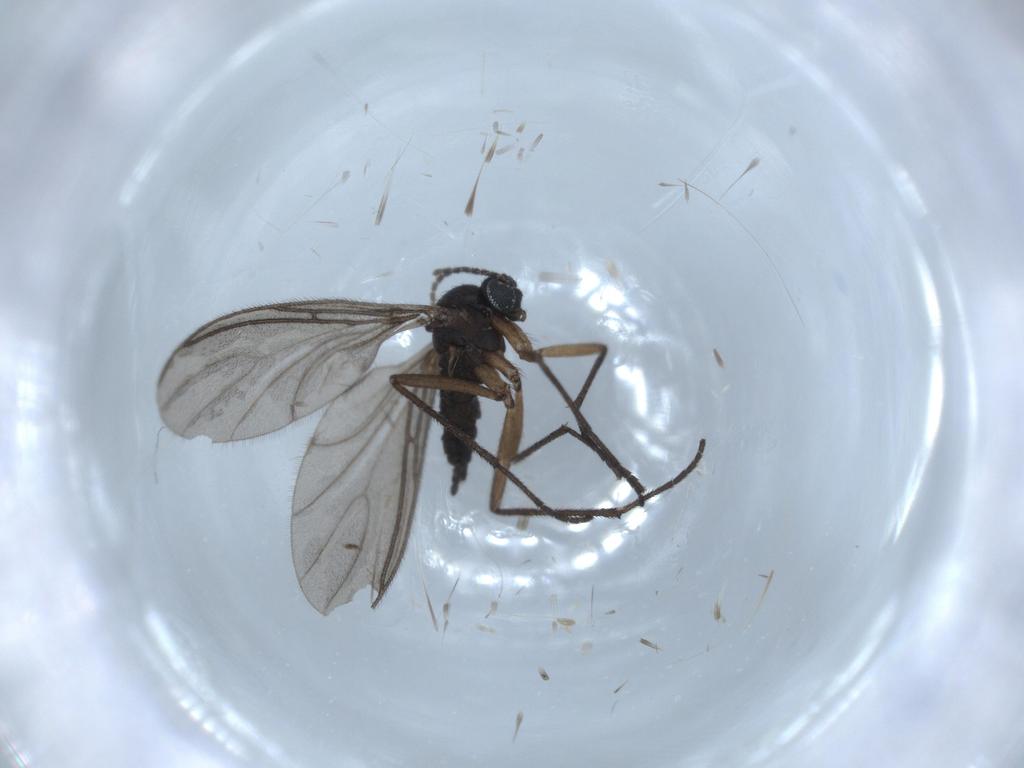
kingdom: Animalia
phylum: Arthropoda
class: Insecta
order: Diptera
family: Sciaridae
